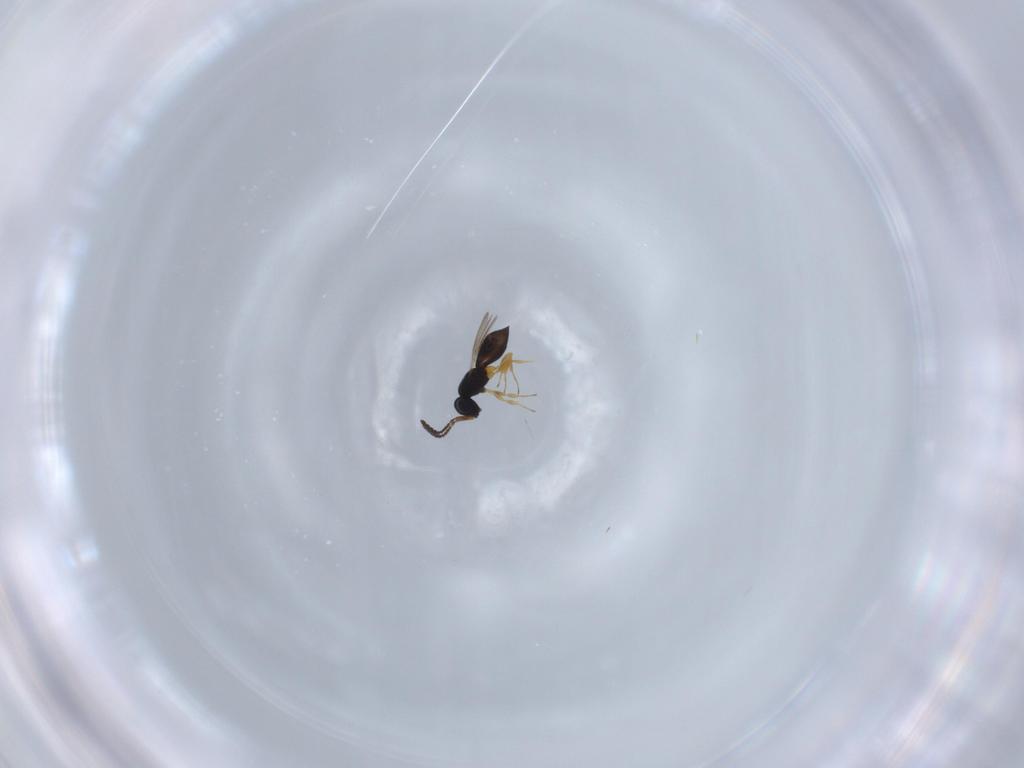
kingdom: Animalia
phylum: Arthropoda
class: Insecta
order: Hymenoptera
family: Scelionidae
